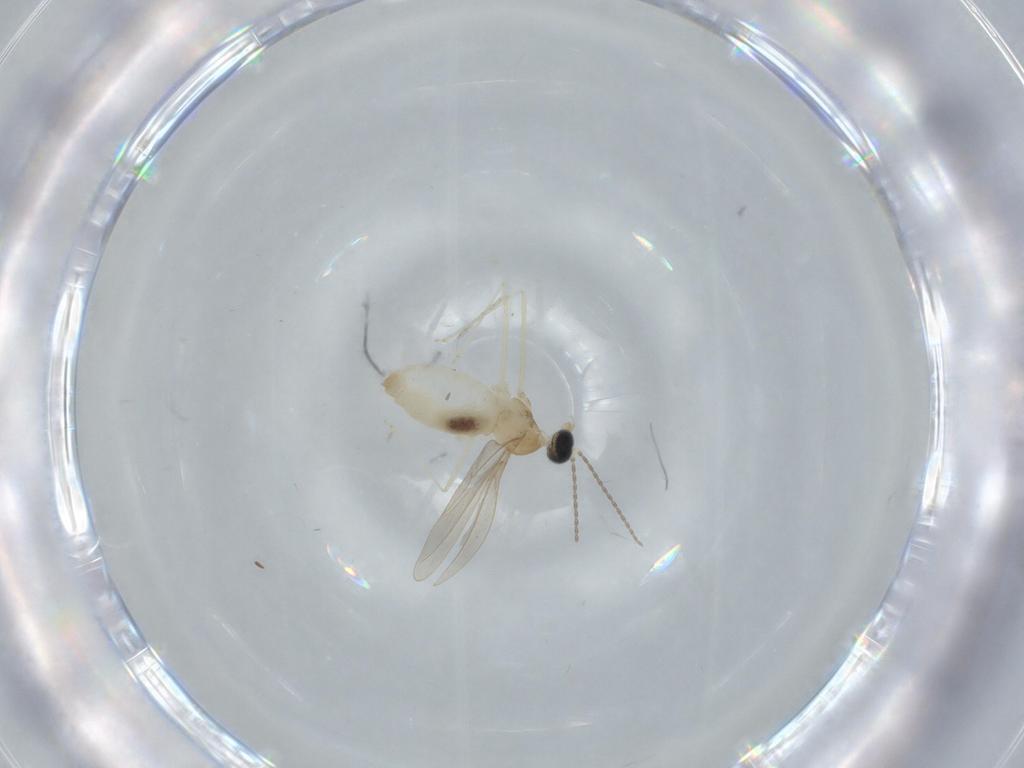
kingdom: Animalia
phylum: Arthropoda
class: Insecta
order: Diptera
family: Cecidomyiidae
